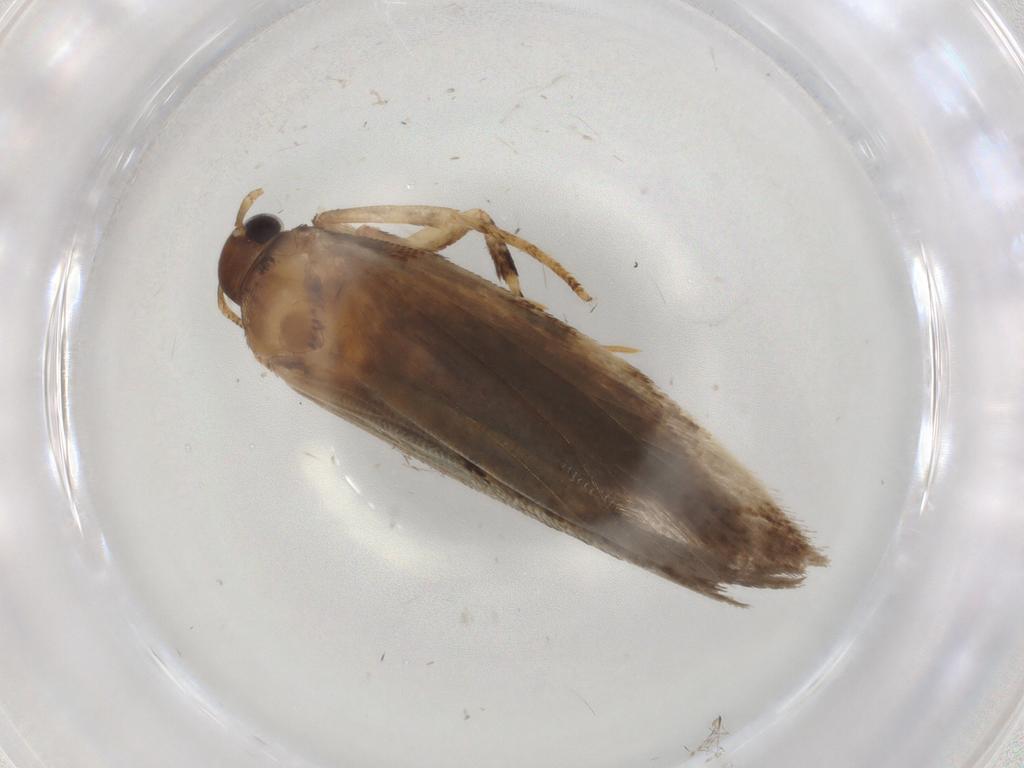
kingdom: Animalia
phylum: Arthropoda
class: Insecta
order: Lepidoptera
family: Gelechiidae
